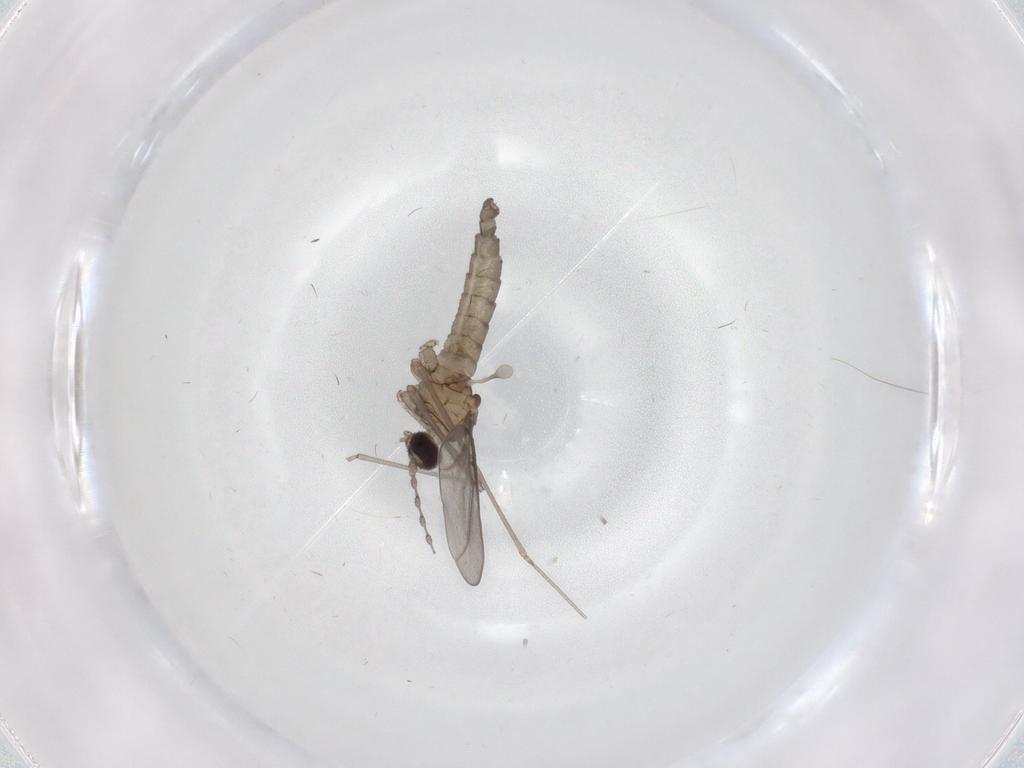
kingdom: Animalia
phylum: Arthropoda
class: Insecta
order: Diptera
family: Cecidomyiidae
